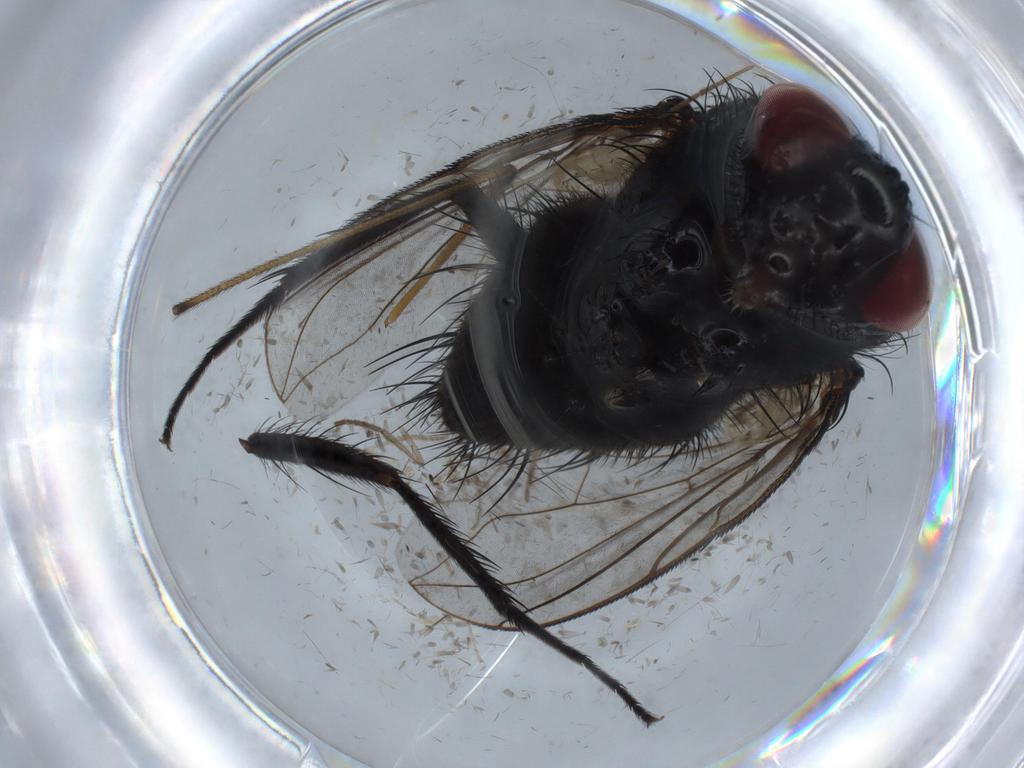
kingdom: Animalia
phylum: Arthropoda
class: Insecta
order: Diptera
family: Tachinidae
